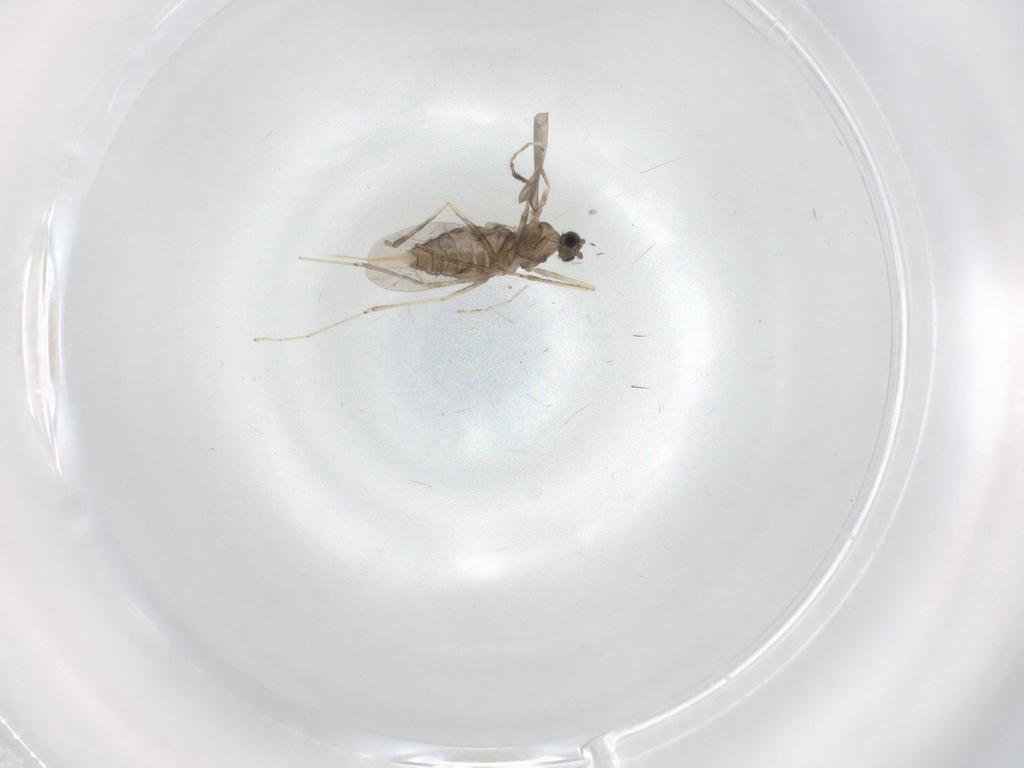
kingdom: Animalia
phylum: Arthropoda
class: Insecta
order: Diptera
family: Cecidomyiidae
